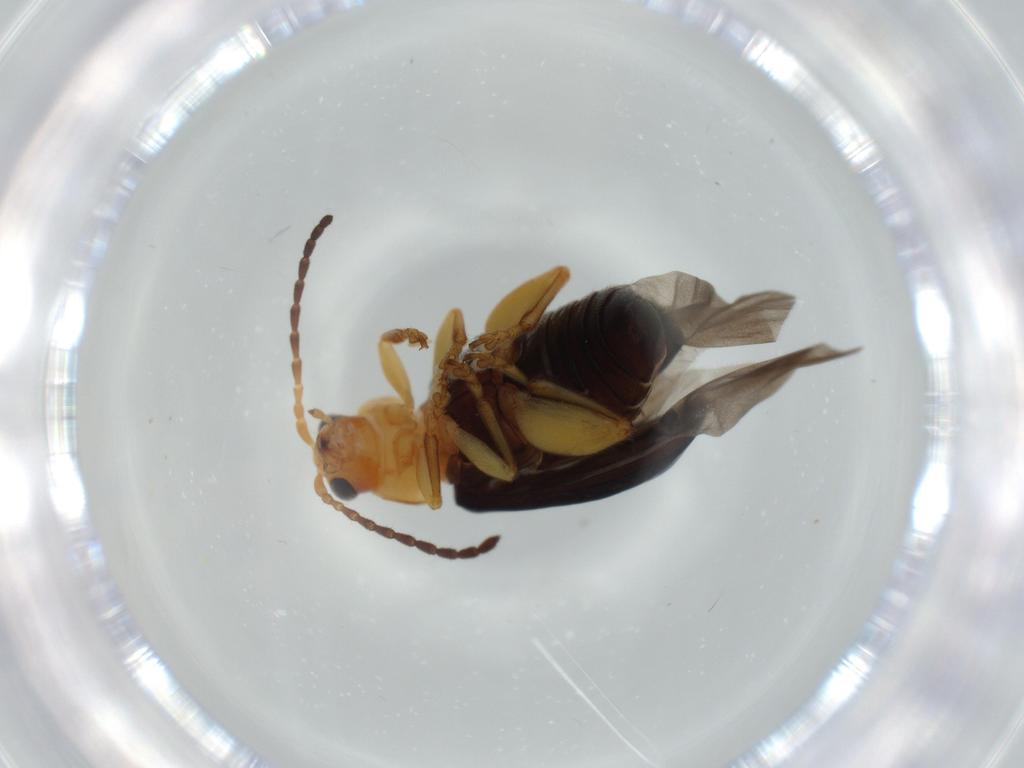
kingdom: Animalia
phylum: Arthropoda
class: Insecta
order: Coleoptera
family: Chrysomelidae
